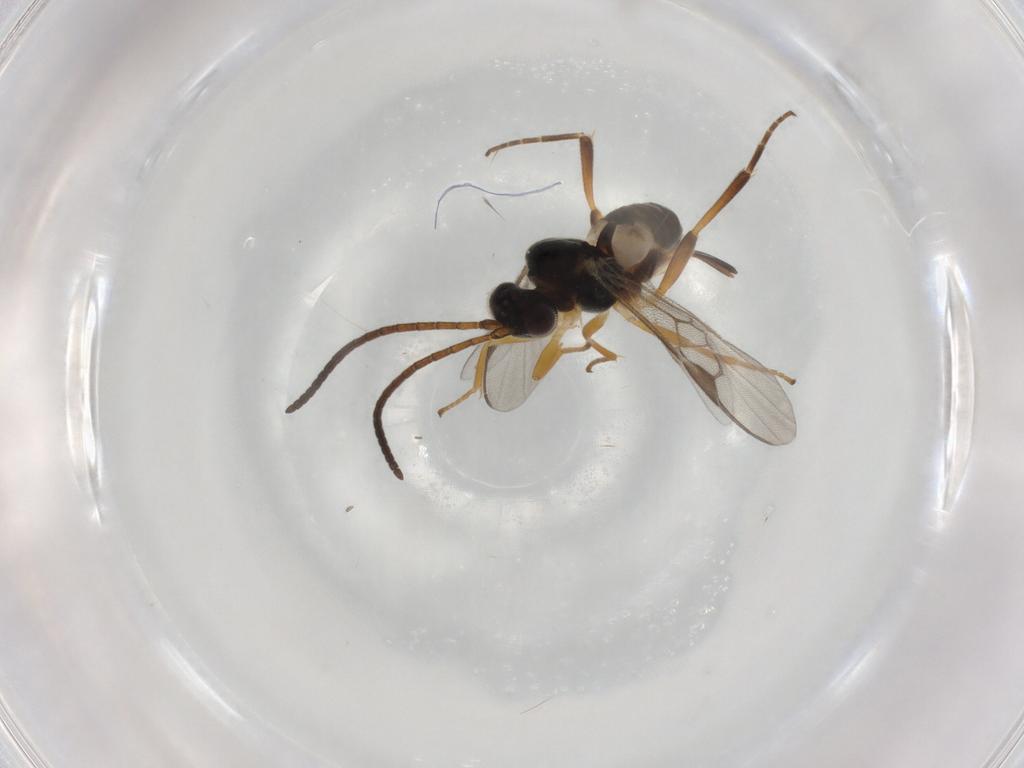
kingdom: Animalia
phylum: Arthropoda
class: Insecta
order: Hymenoptera
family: Braconidae
